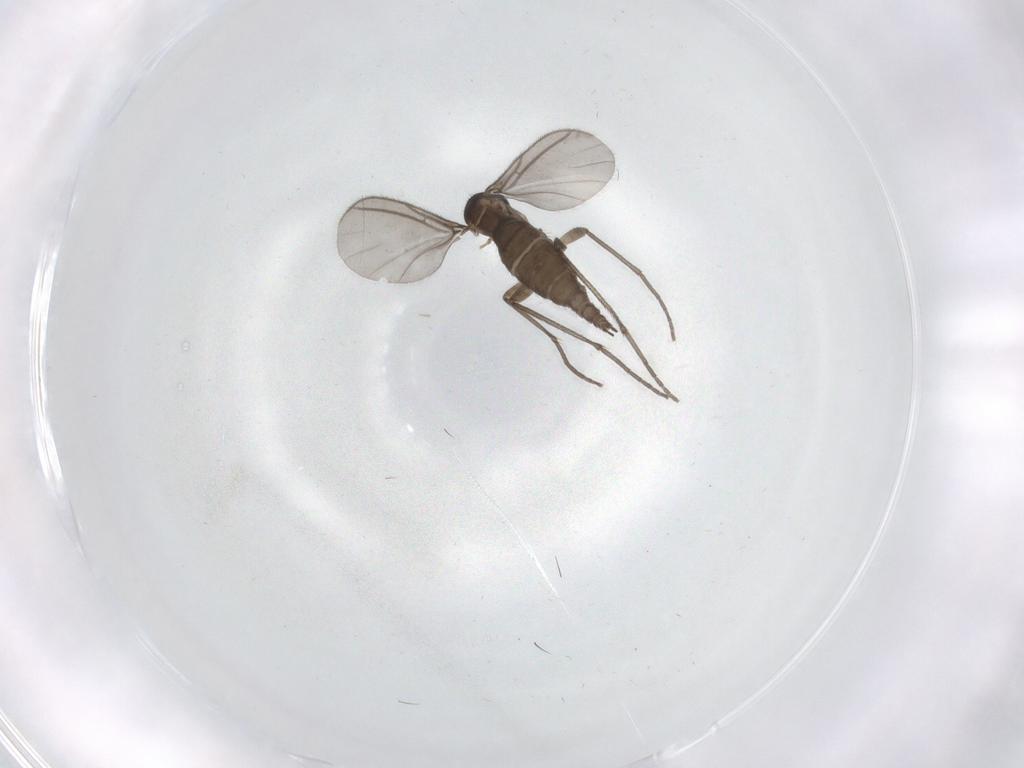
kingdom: Animalia
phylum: Arthropoda
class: Insecta
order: Diptera
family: Sciaridae
